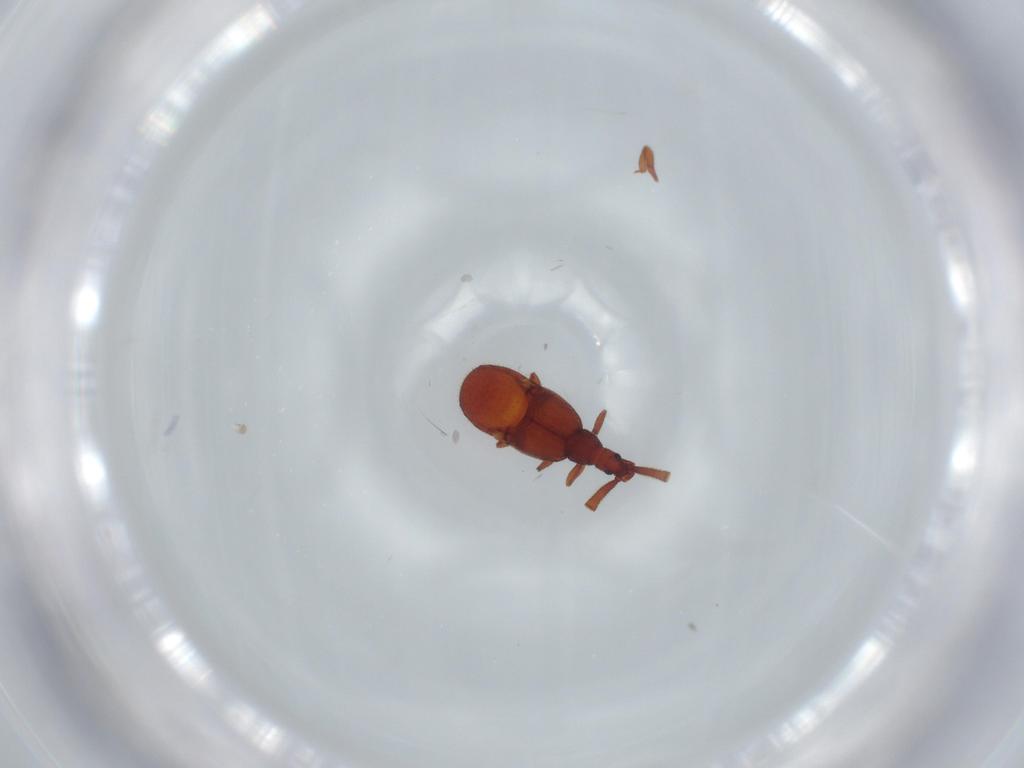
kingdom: Animalia
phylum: Arthropoda
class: Insecta
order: Coleoptera
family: Staphylinidae
